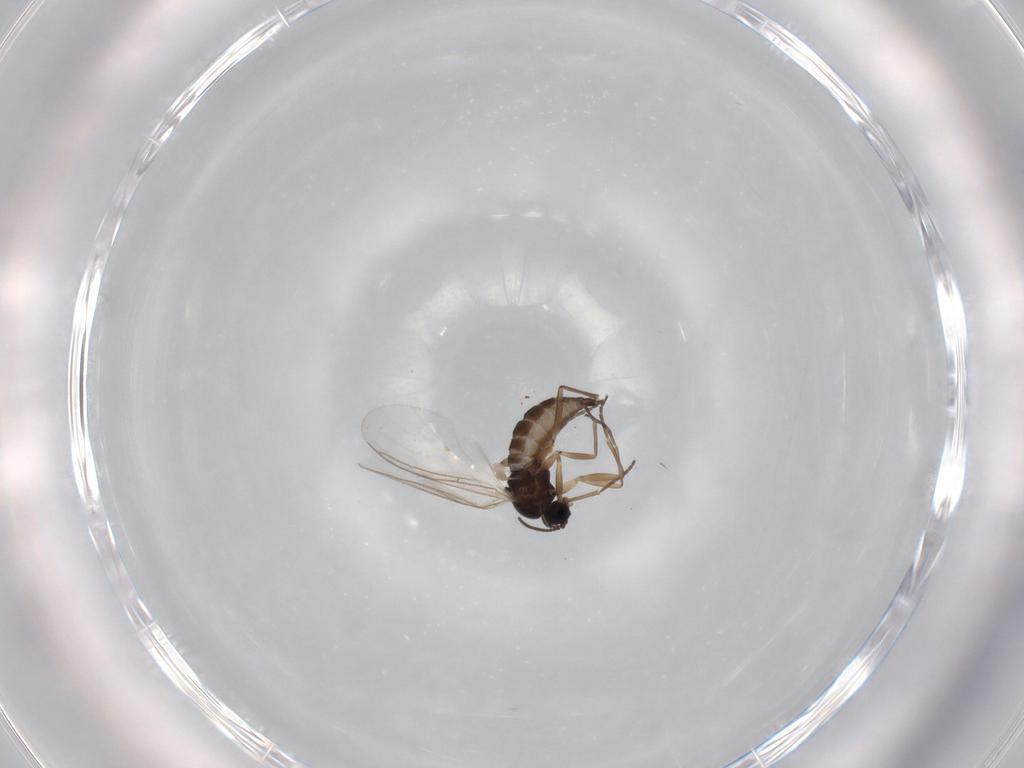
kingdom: Animalia
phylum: Arthropoda
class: Insecta
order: Diptera
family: Sciaridae
